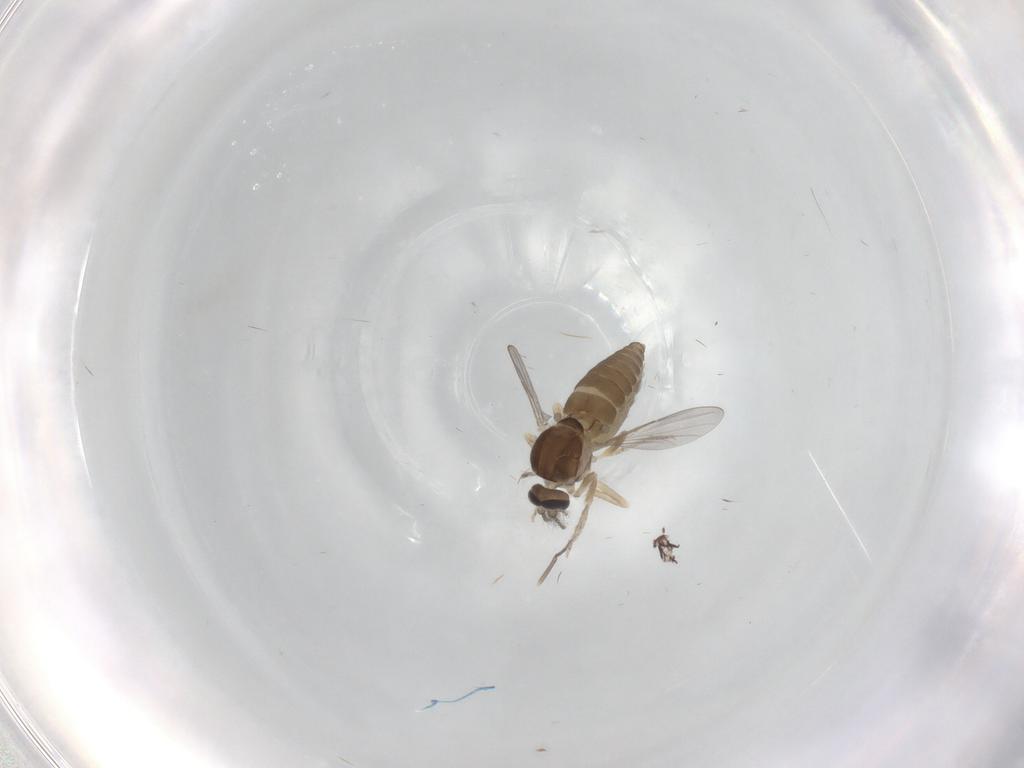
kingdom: Animalia
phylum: Arthropoda
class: Insecta
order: Diptera
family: Ceratopogonidae
